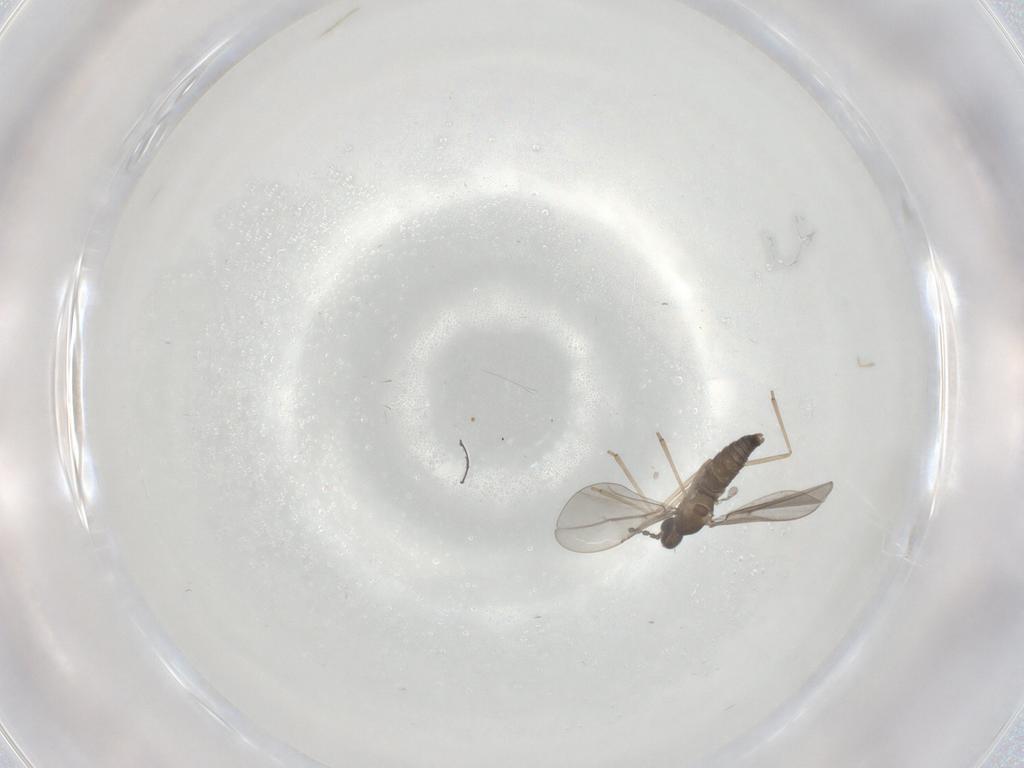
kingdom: Animalia
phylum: Arthropoda
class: Insecta
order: Diptera
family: Cecidomyiidae
